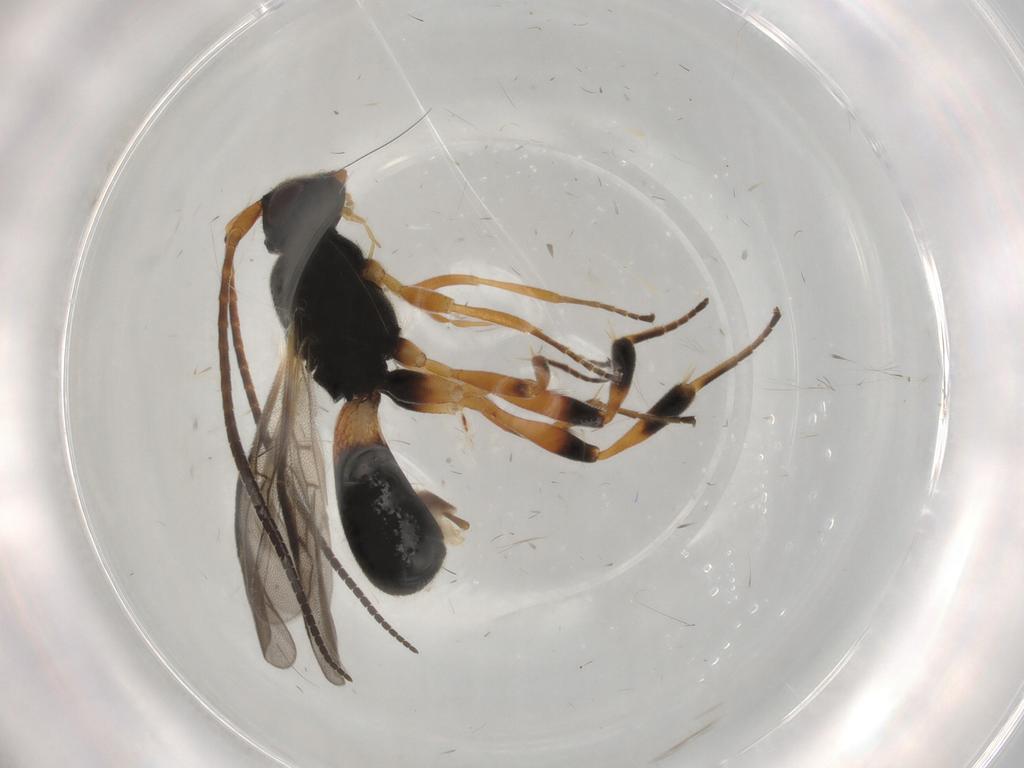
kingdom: Animalia
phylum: Arthropoda
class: Insecta
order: Hymenoptera
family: Braconidae
